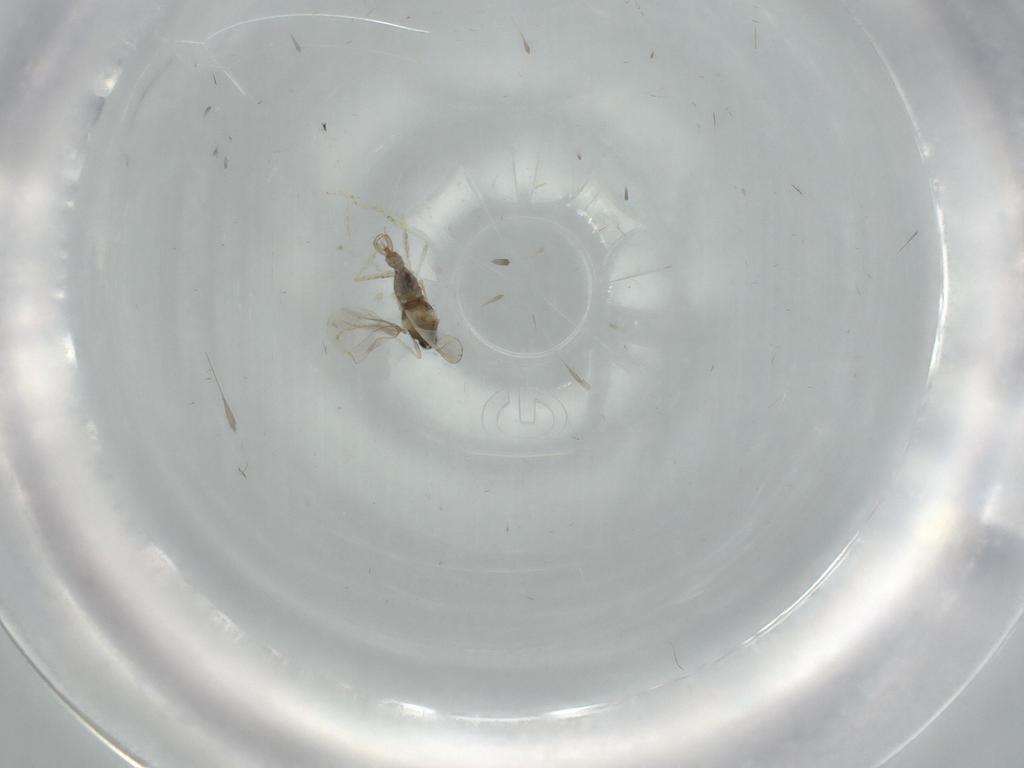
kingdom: Animalia
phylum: Arthropoda
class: Insecta
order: Diptera
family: Cecidomyiidae
